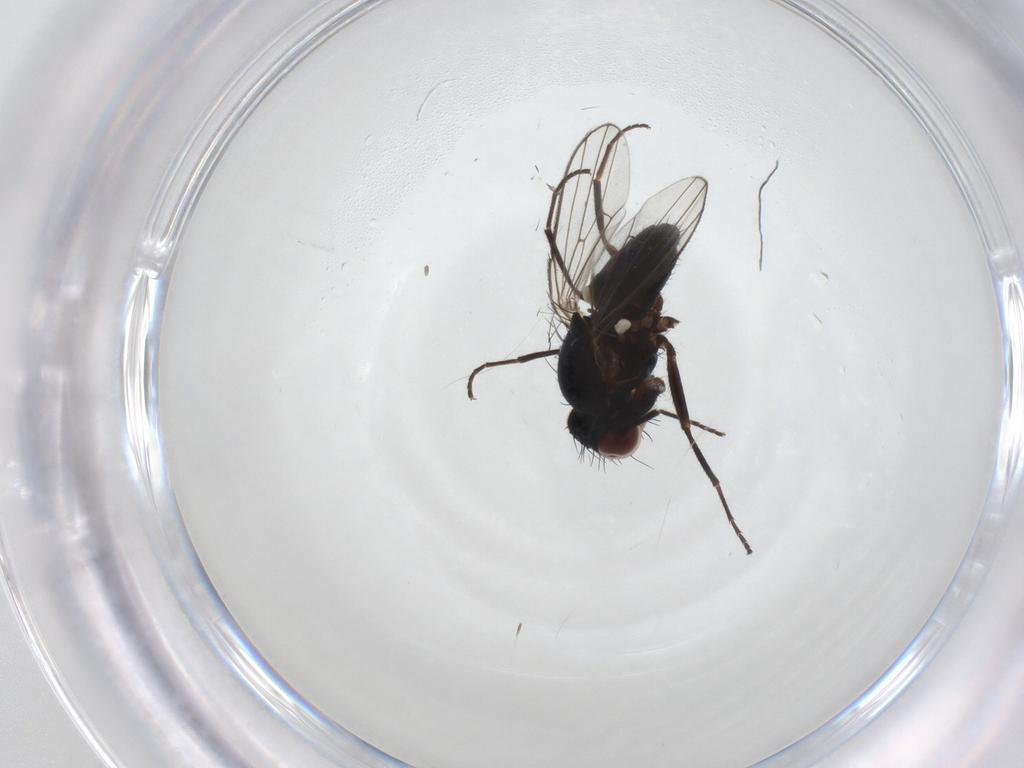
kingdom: Animalia
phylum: Arthropoda
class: Insecta
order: Diptera
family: Carnidae
